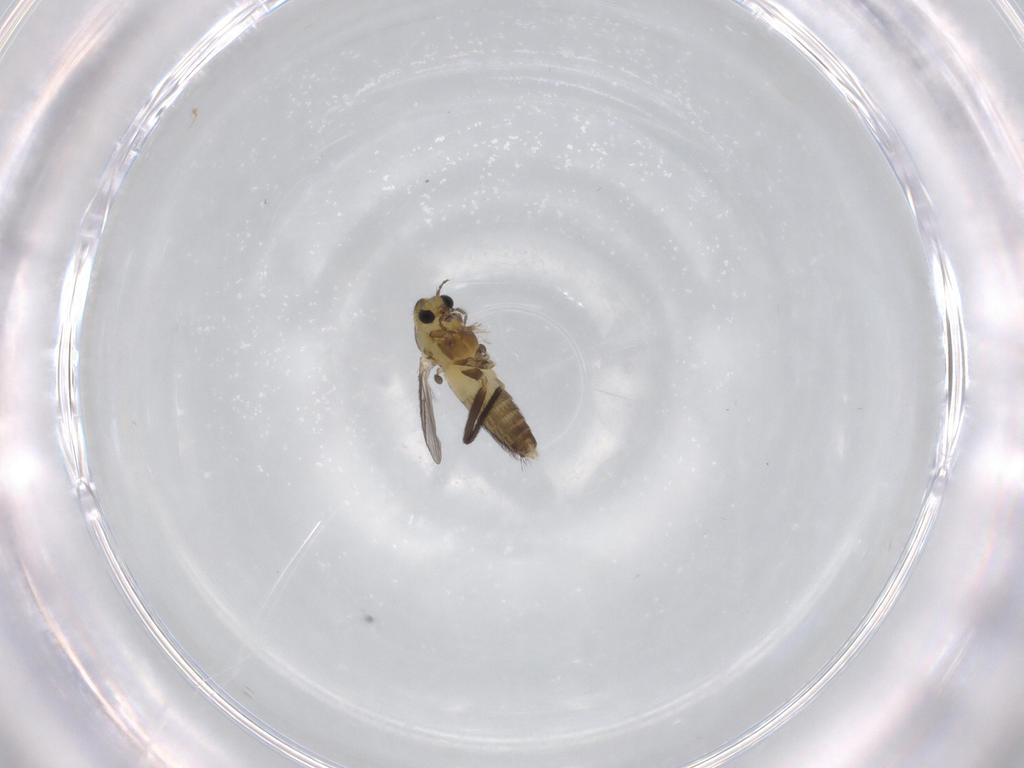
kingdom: Animalia
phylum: Arthropoda
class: Insecta
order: Diptera
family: Chironomidae
